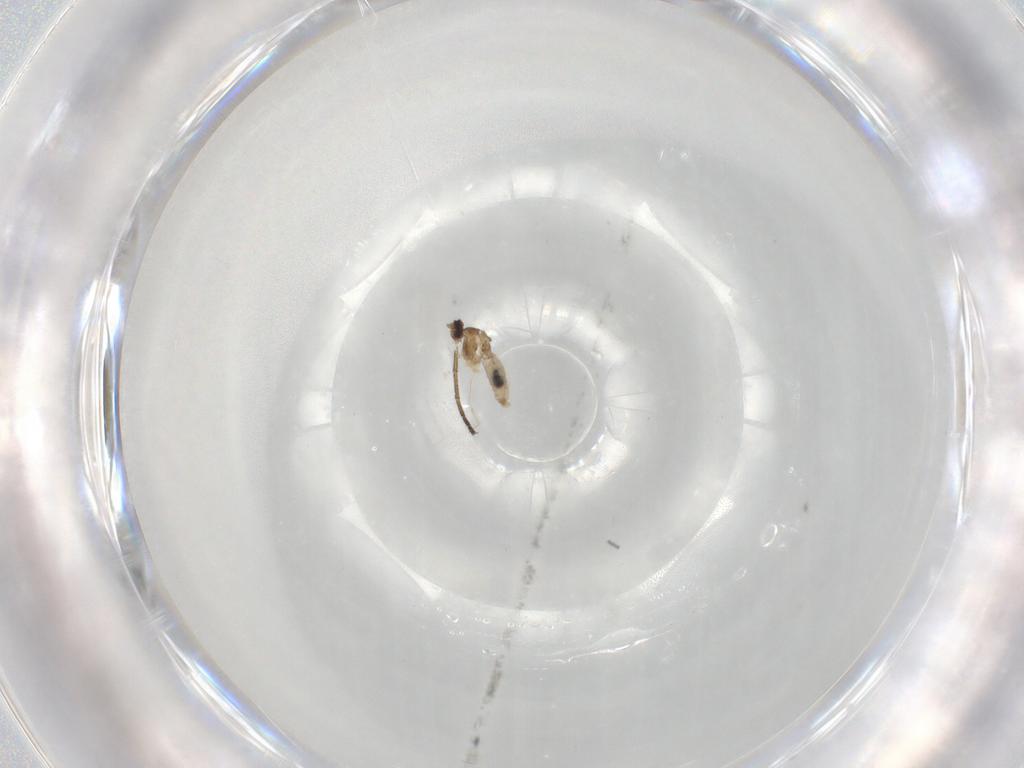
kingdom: Animalia
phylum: Arthropoda
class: Insecta
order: Diptera
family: Cecidomyiidae
